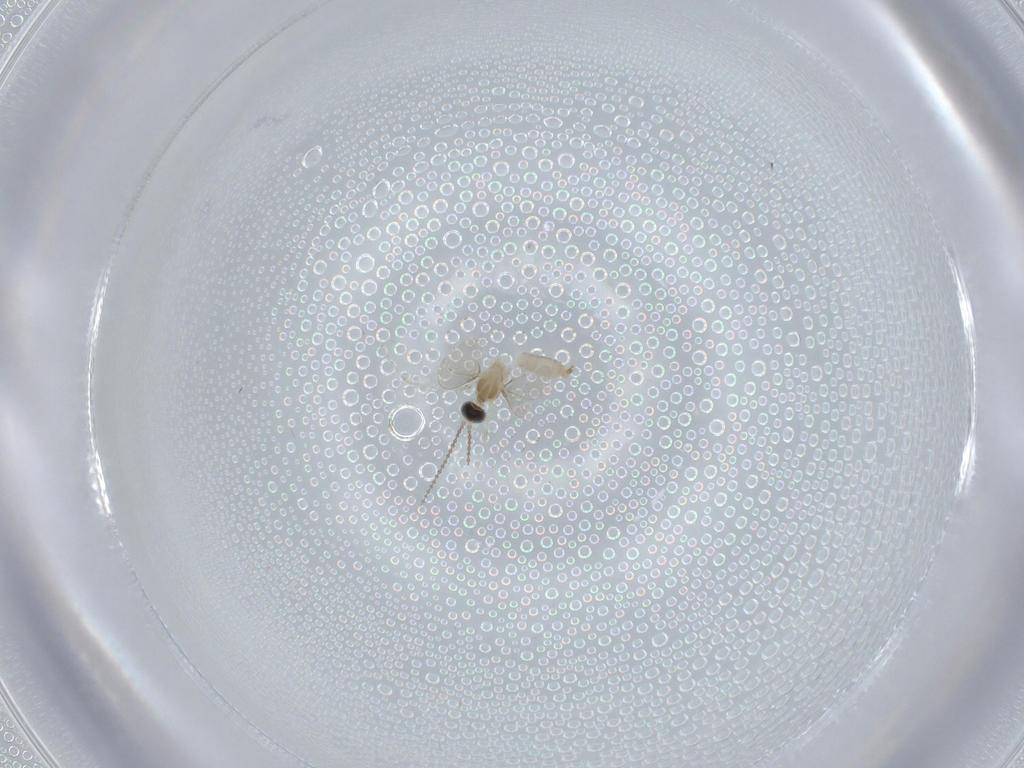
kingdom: Animalia
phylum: Arthropoda
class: Insecta
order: Diptera
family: Cecidomyiidae
